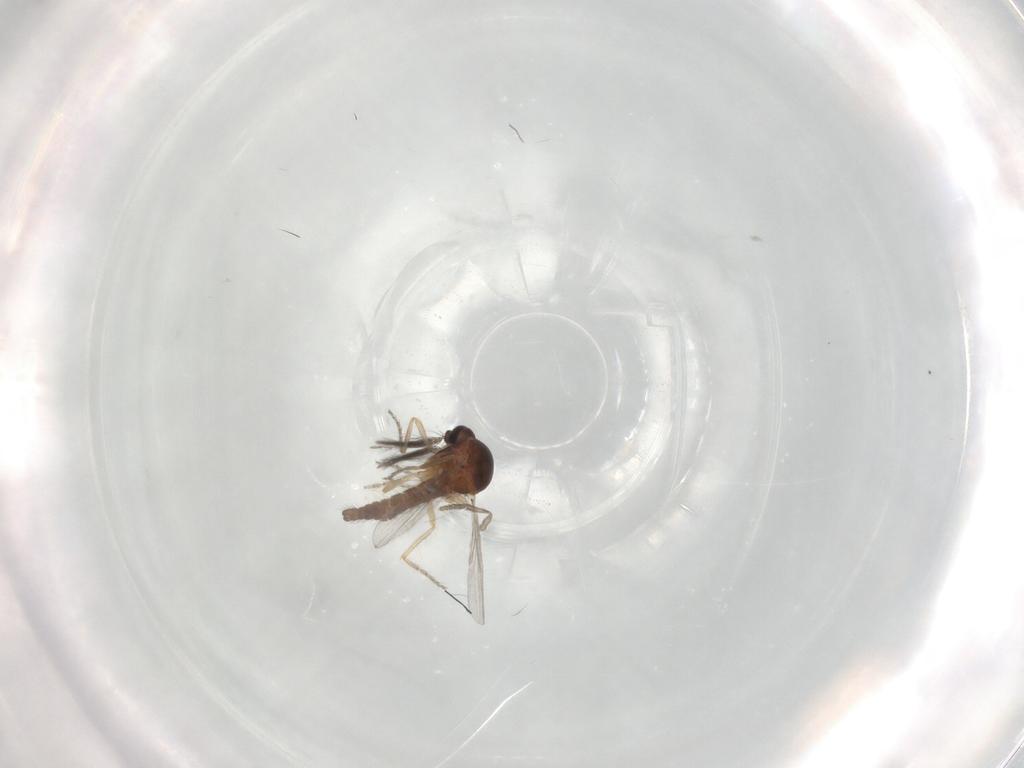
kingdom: Animalia
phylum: Arthropoda
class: Insecta
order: Diptera
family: Ceratopogonidae
